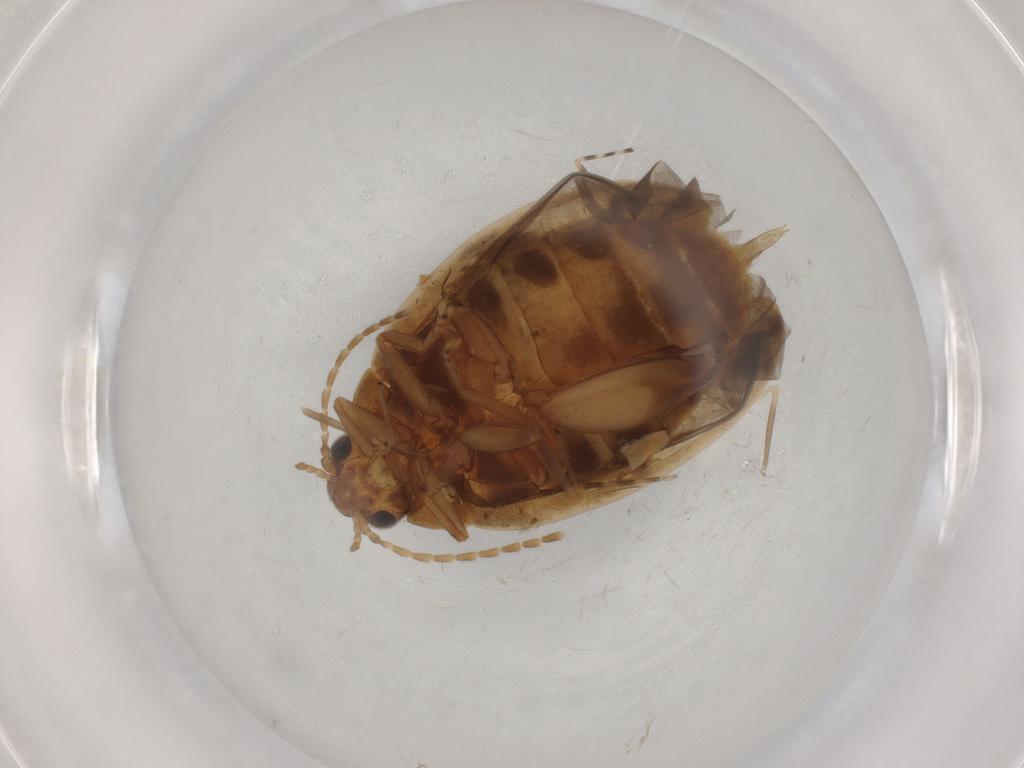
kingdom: Animalia
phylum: Arthropoda
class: Insecta
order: Coleoptera
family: Scirtidae
